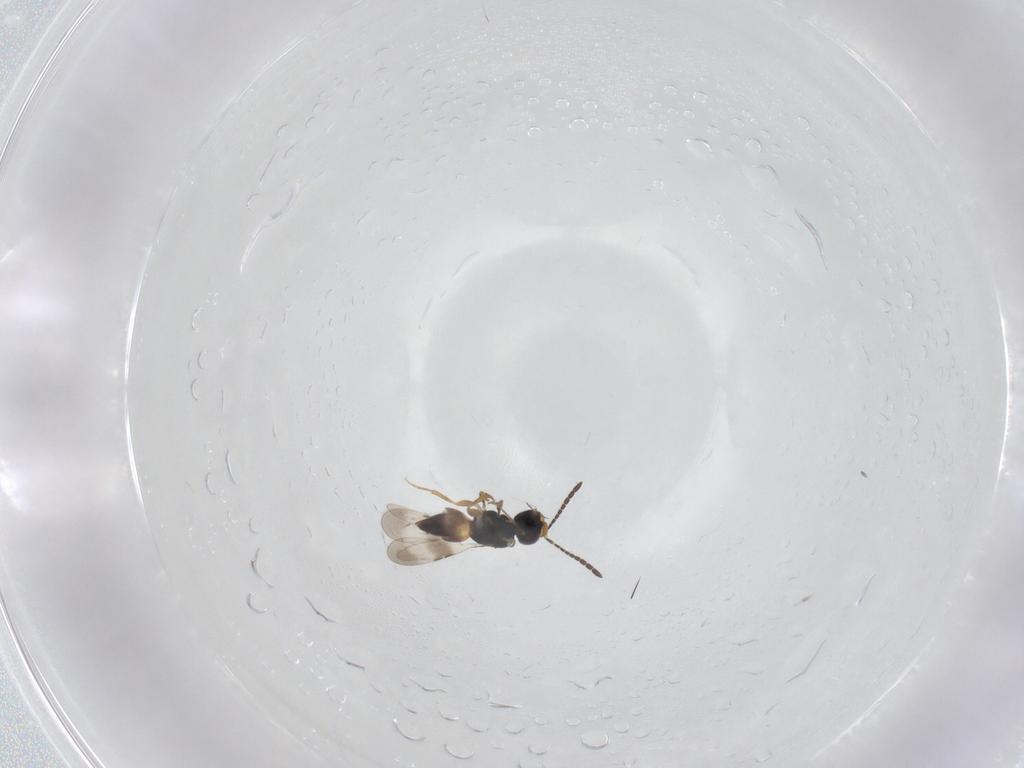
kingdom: Animalia
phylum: Arthropoda
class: Insecta
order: Hymenoptera
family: Ceraphronidae
